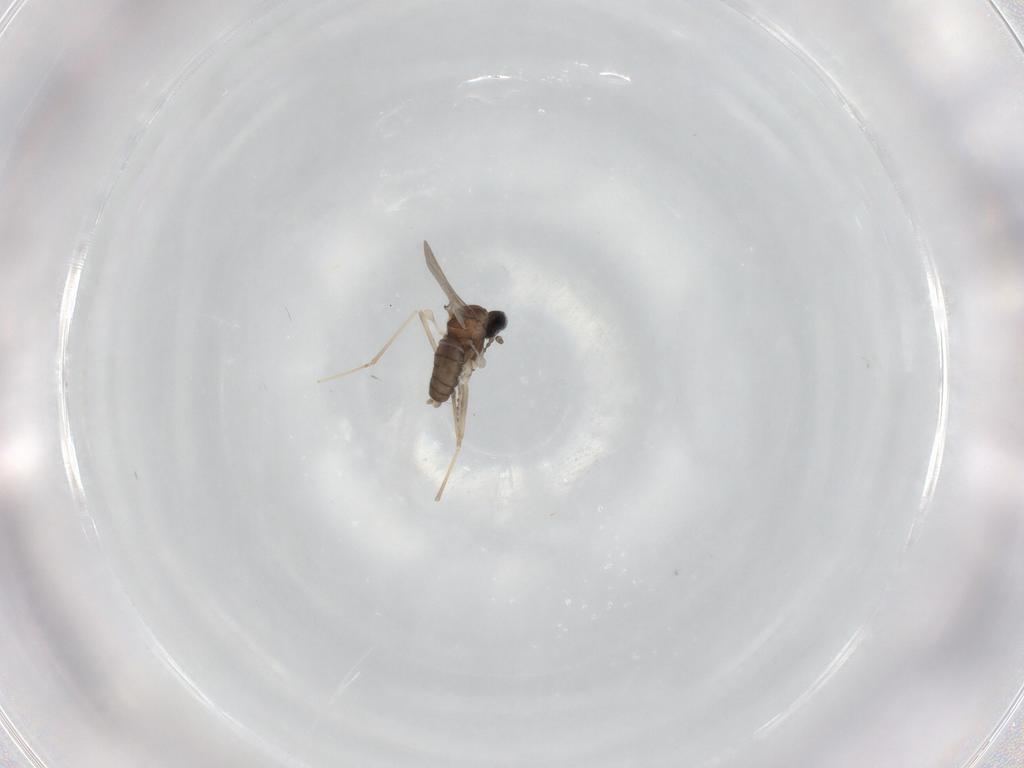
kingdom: Animalia
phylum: Arthropoda
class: Insecta
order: Diptera
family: Cecidomyiidae
